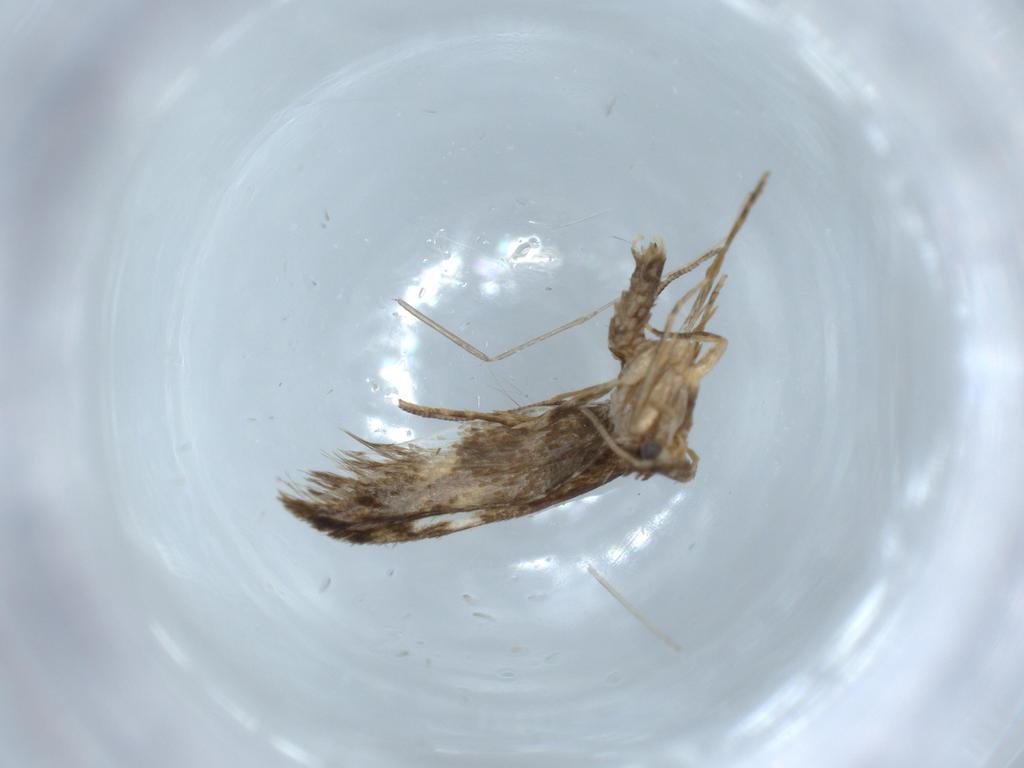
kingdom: Animalia
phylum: Arthropoda
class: Insecta
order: Lepidoptera
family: Tineidae
